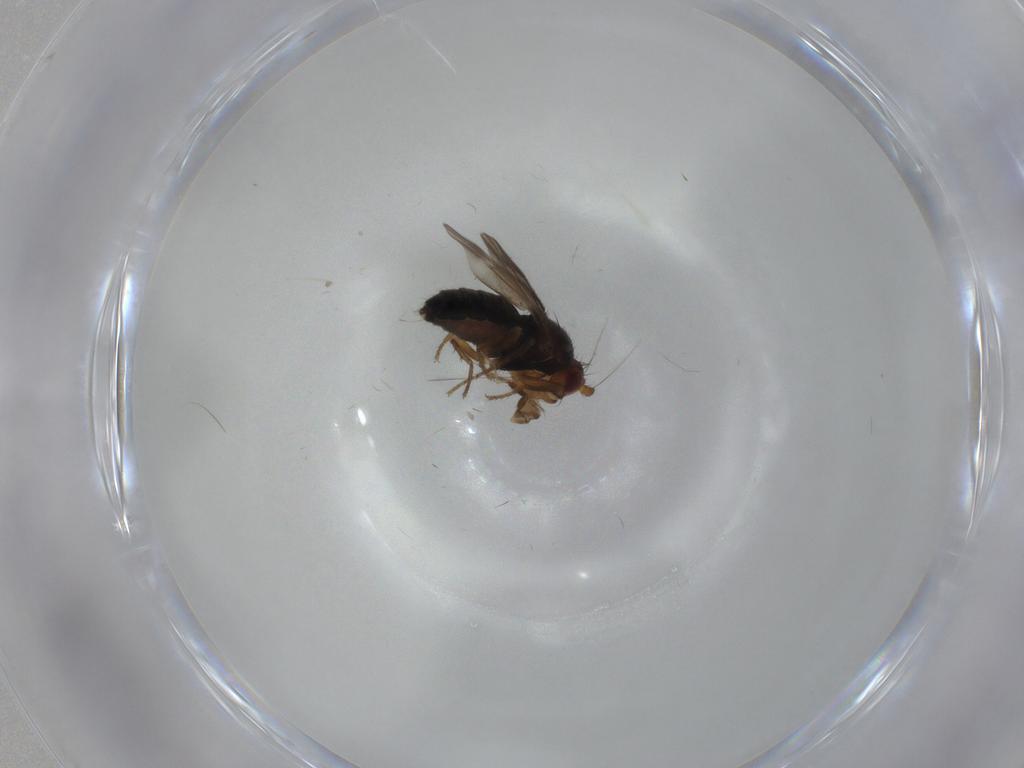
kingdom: Animalia
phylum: Arthropoda
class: Insecta
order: Diptera
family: Sphaeroceridae
